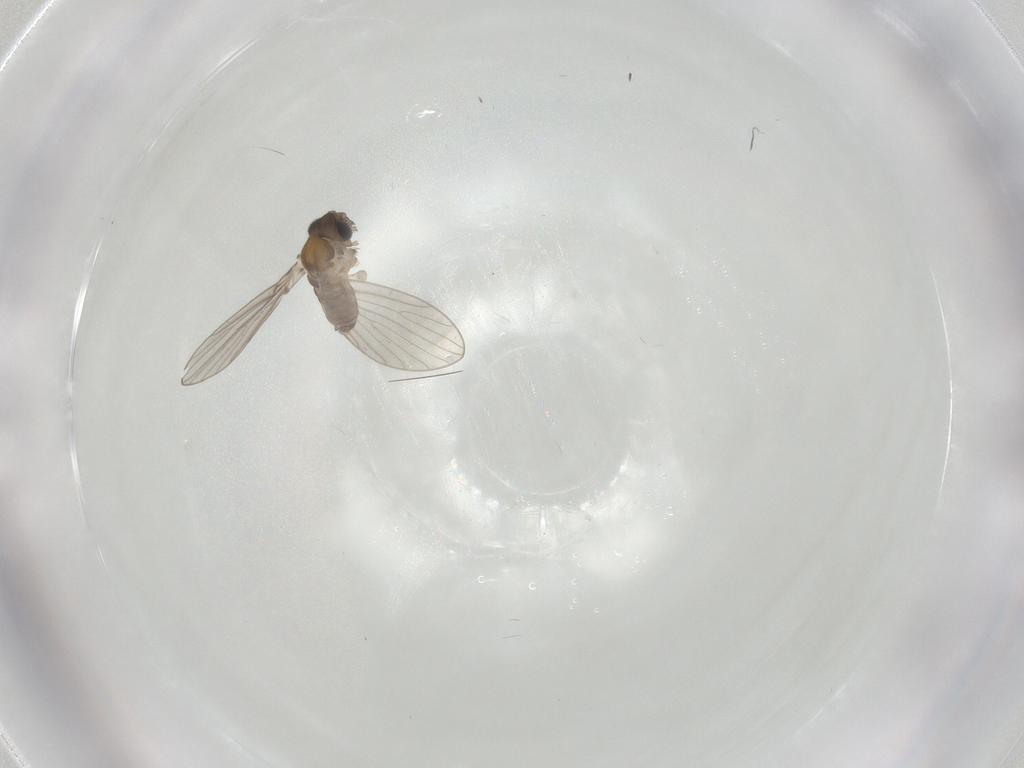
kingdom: Animalia
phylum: Arthropoda
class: Insecta
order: Diptera
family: Psychodidae
